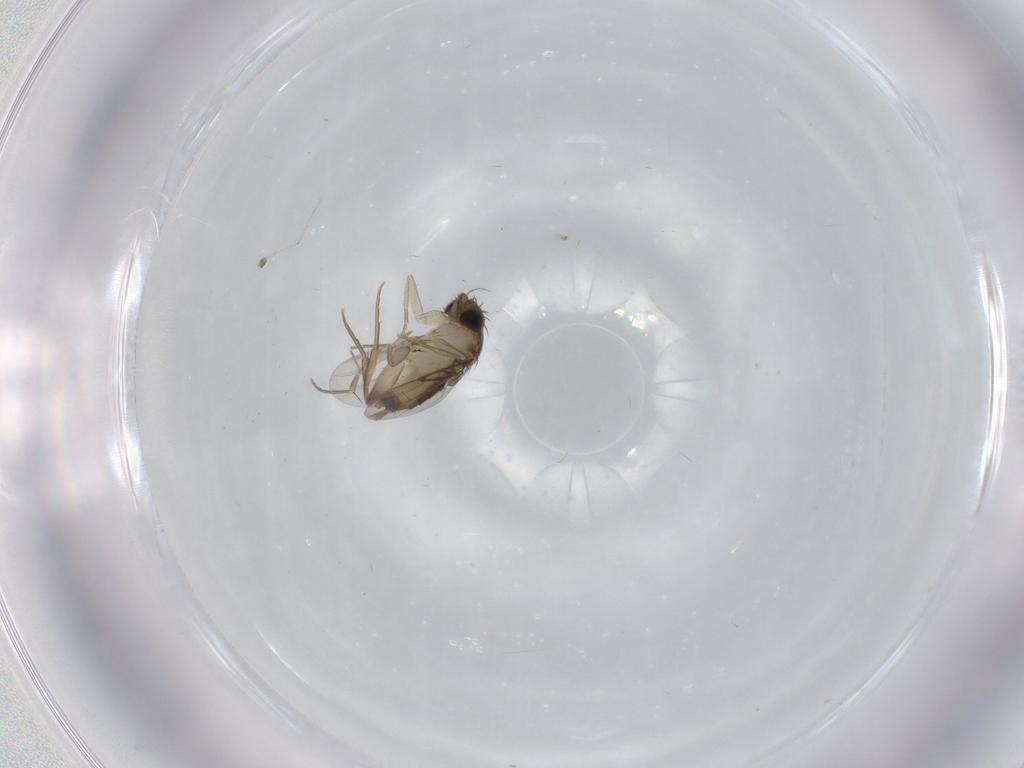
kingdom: Animalia
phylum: Arthropoda
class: Insecta
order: Diptera
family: Phoridae
